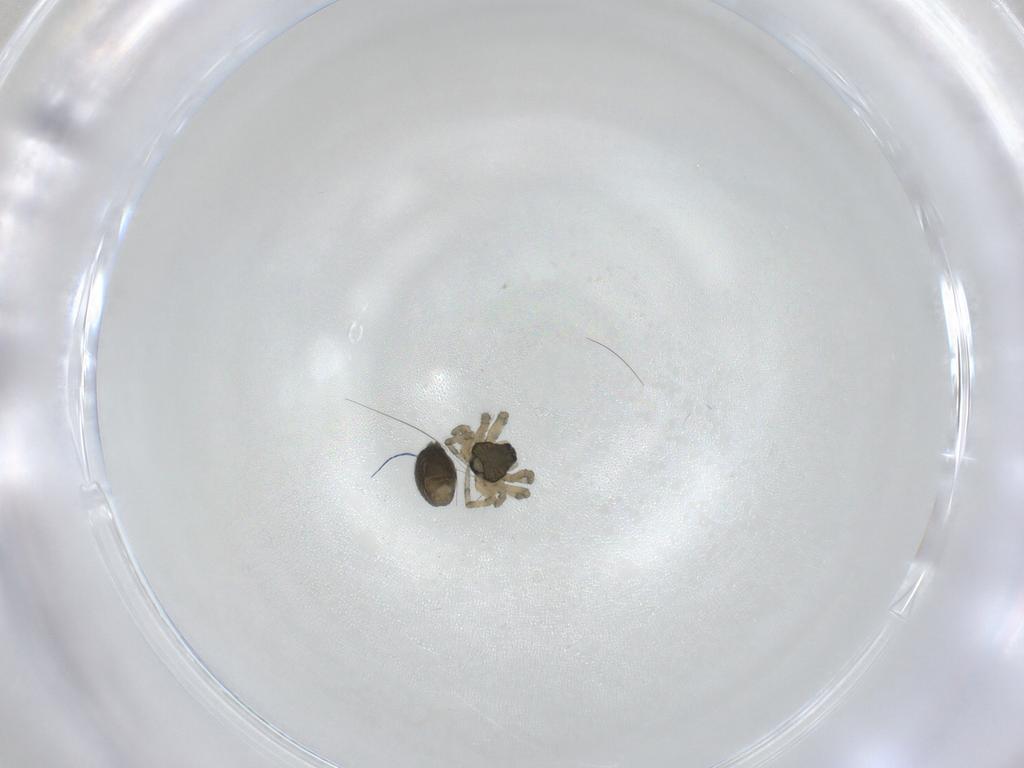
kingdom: Animalia
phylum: Arthropoda
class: Arachnida
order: Araneae
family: Linyphiidae
